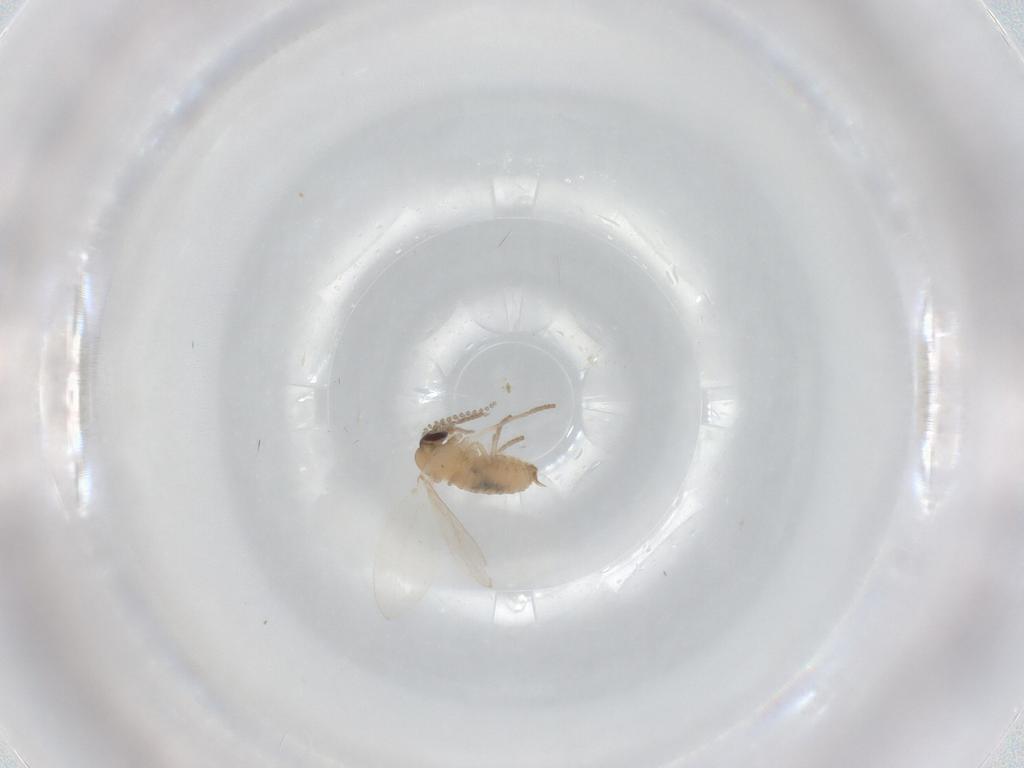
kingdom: Animalia
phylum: Arthropoda
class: Insecta
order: Diptera
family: Psychodidae
